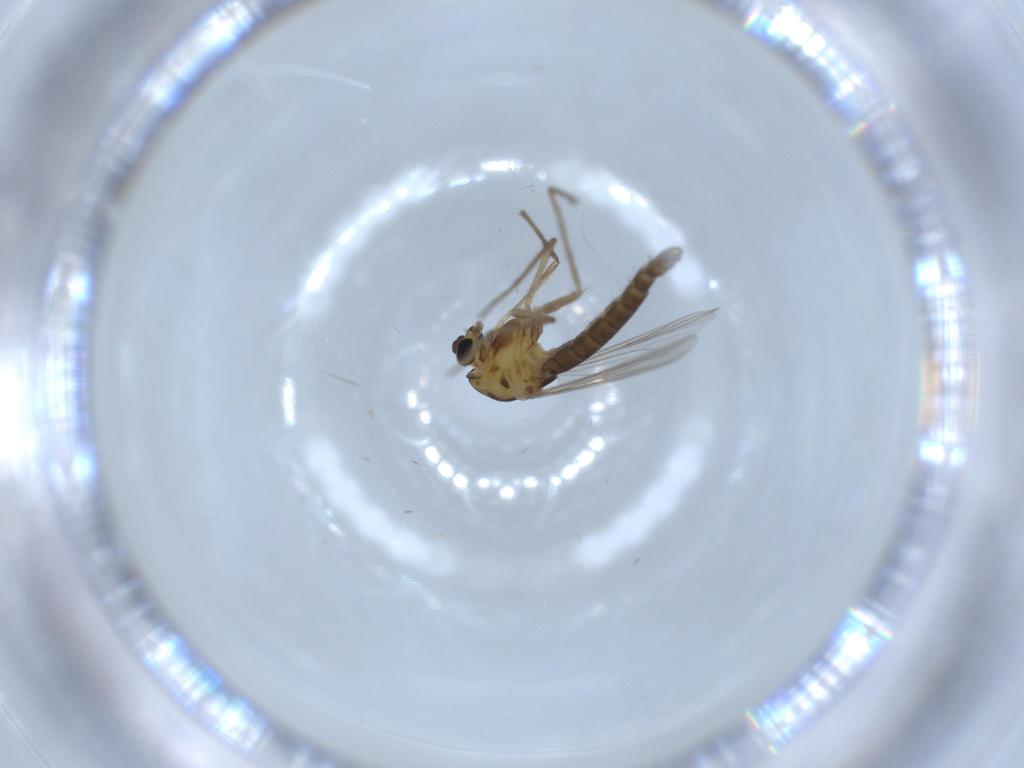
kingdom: Animalia
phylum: Arthropoda
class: Insecta
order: Diptera
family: Chironomidae
